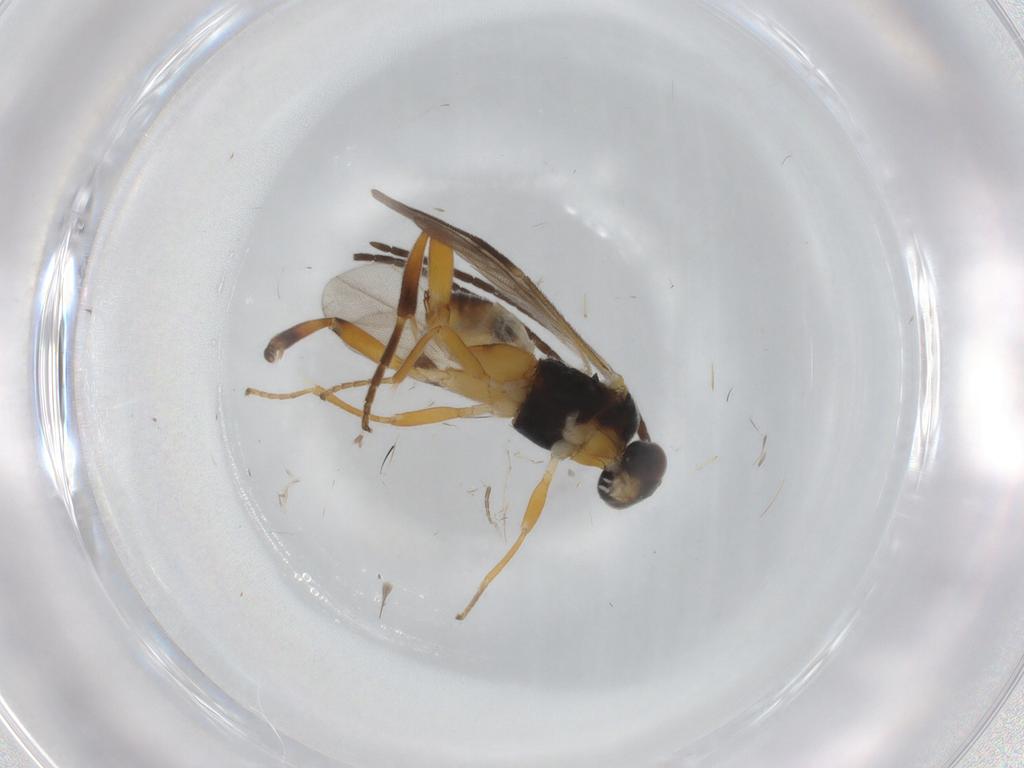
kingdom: Animalia
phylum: Arthropoda
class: Insecta
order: Hymenoptera
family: Braconidae
